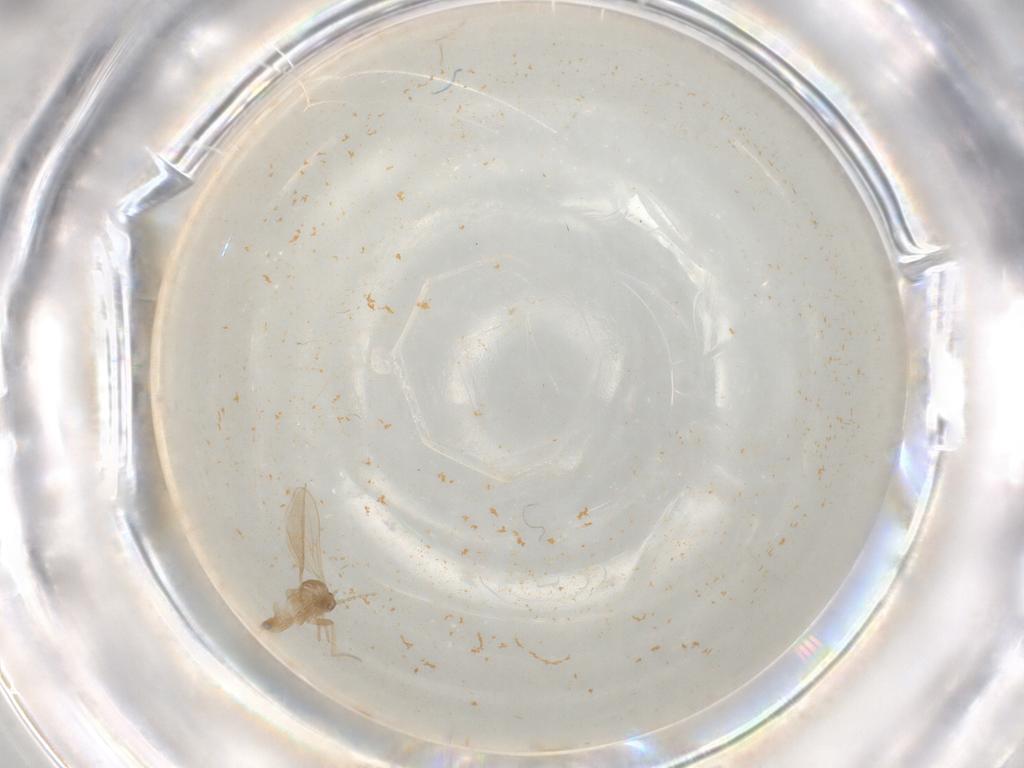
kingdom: Animalia
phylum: Arthropoda
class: Insecta
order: Diptera
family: Cecidomyiidae
